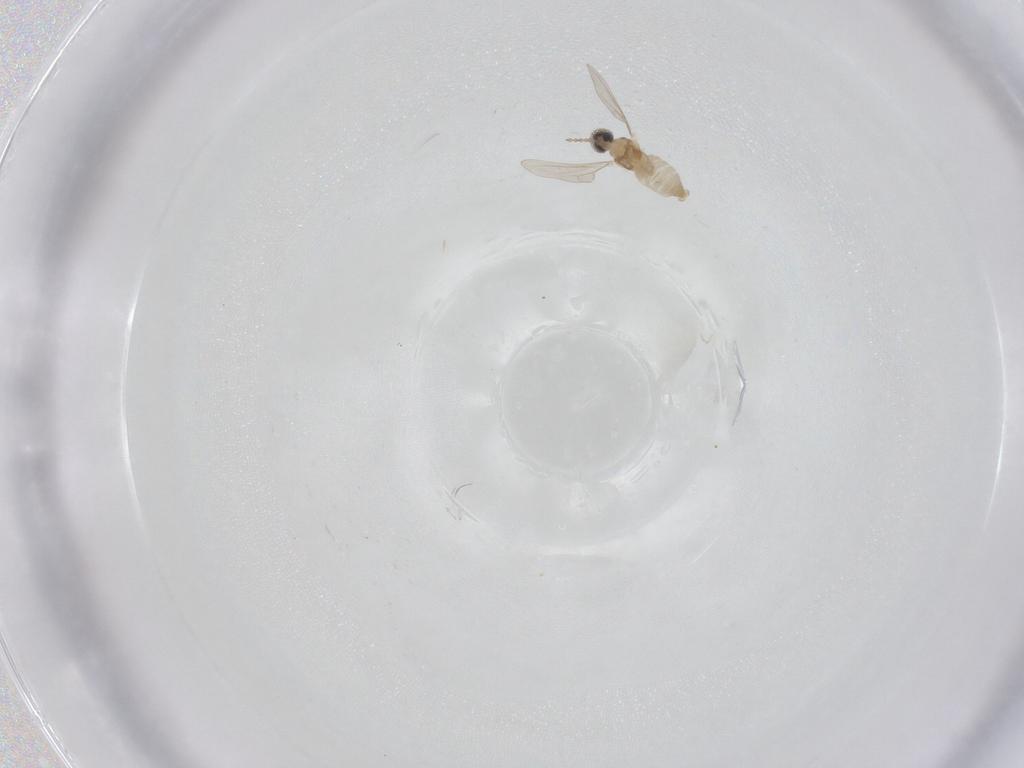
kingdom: Animalia
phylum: Arthropoda
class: Insecta
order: Diptera
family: Cecidomyiidae
